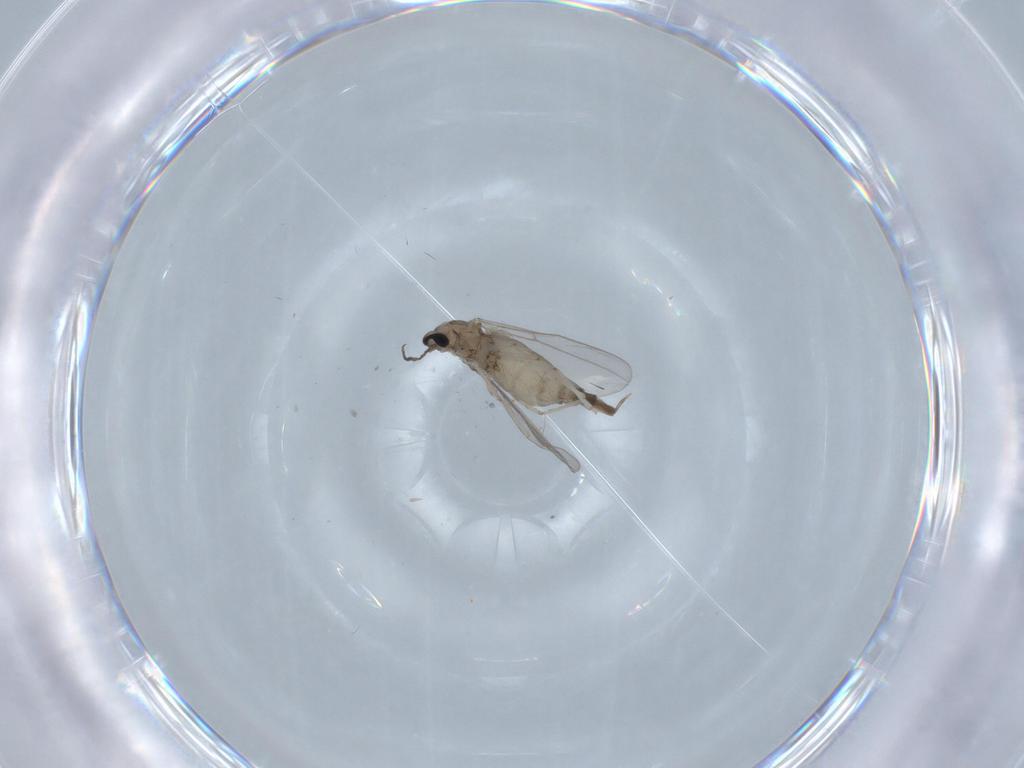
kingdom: Animalia
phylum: Arthropoda
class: Insecta
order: Diptera
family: Cecidomyiidae
